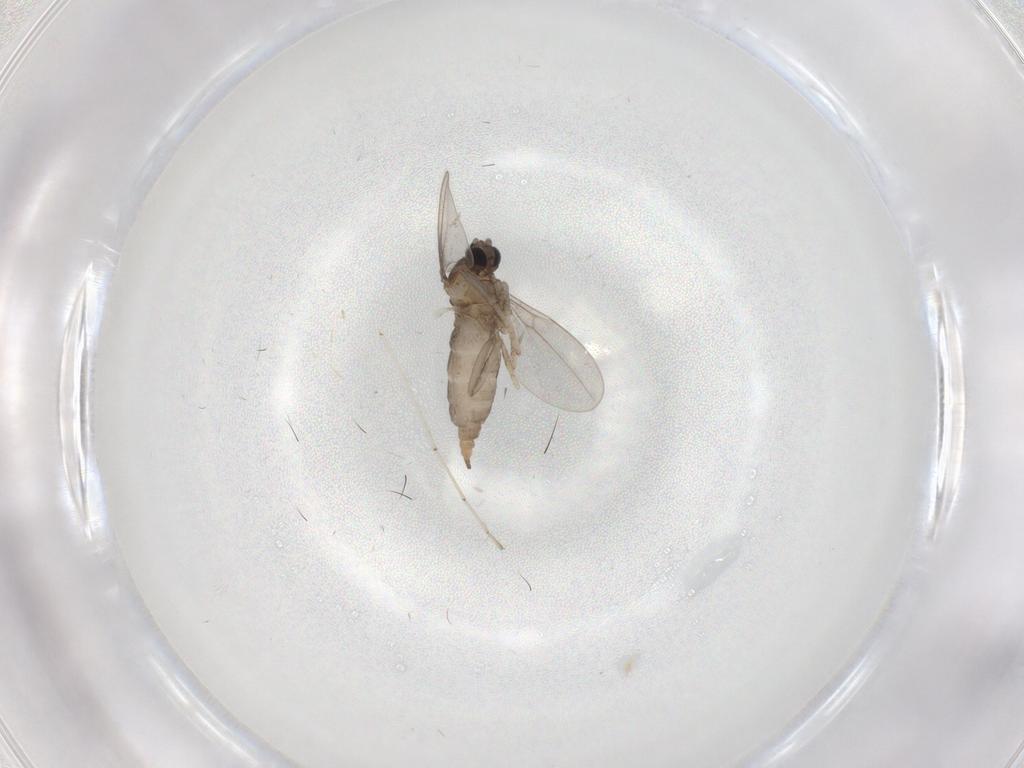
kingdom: Animalia
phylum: Arthropoda
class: Insecta
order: Diptera
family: Cecidomyiidae
